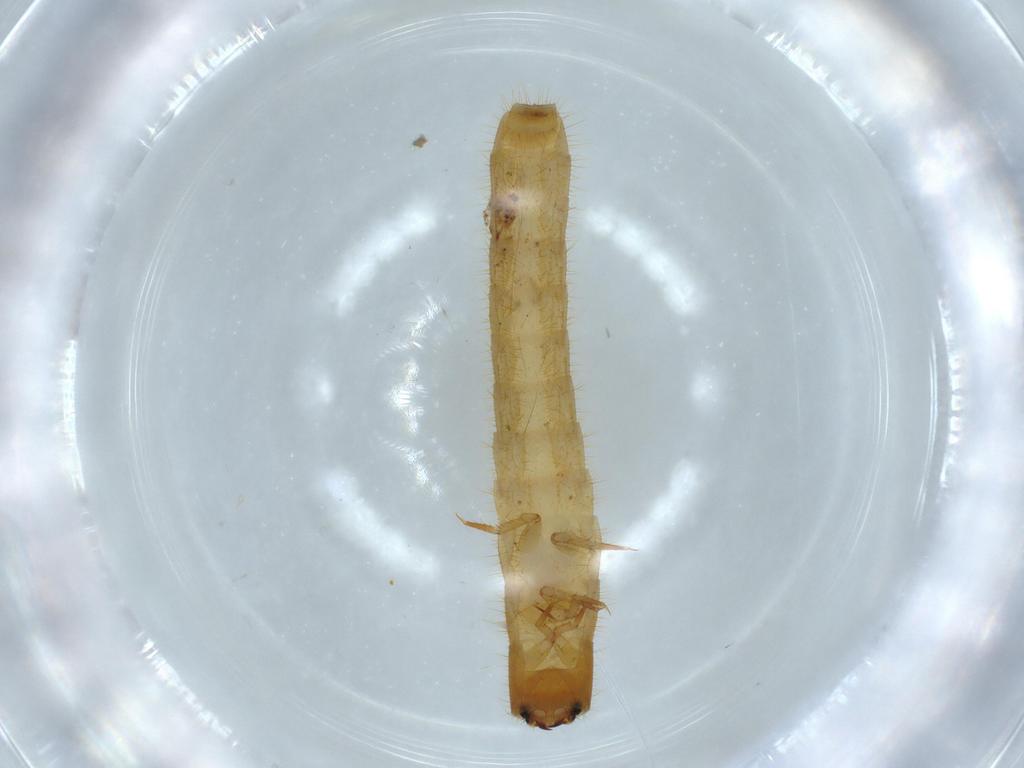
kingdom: Animalia
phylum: Arthropoda
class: Insecta
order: Coleoptera
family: Phengodidae
